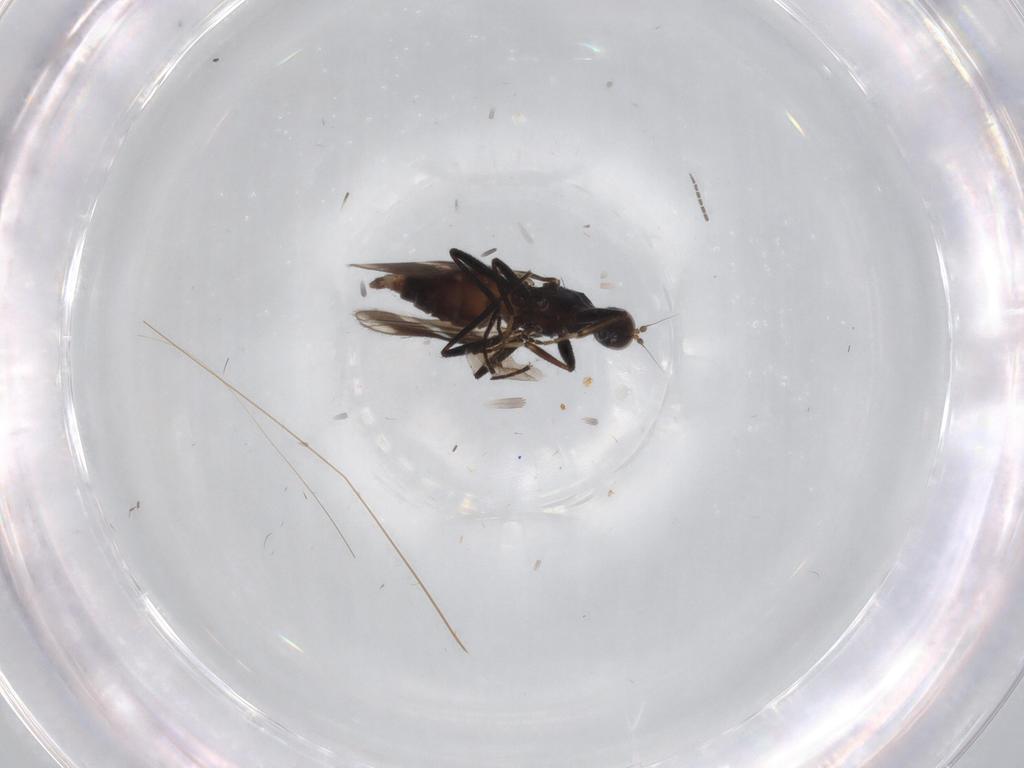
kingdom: Animalia
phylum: Arthropoda
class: Insecta
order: Diptera
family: Hybotidae
